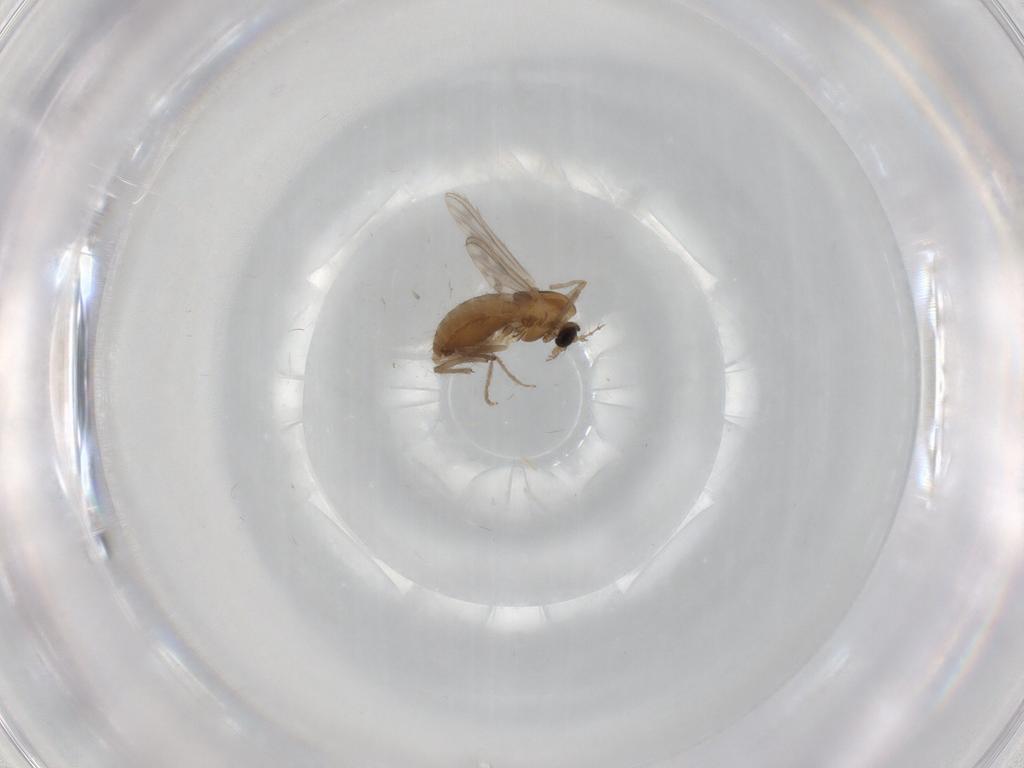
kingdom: Animalia
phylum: Arthropoda
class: Insecta
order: Diptera
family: Chironomidae
